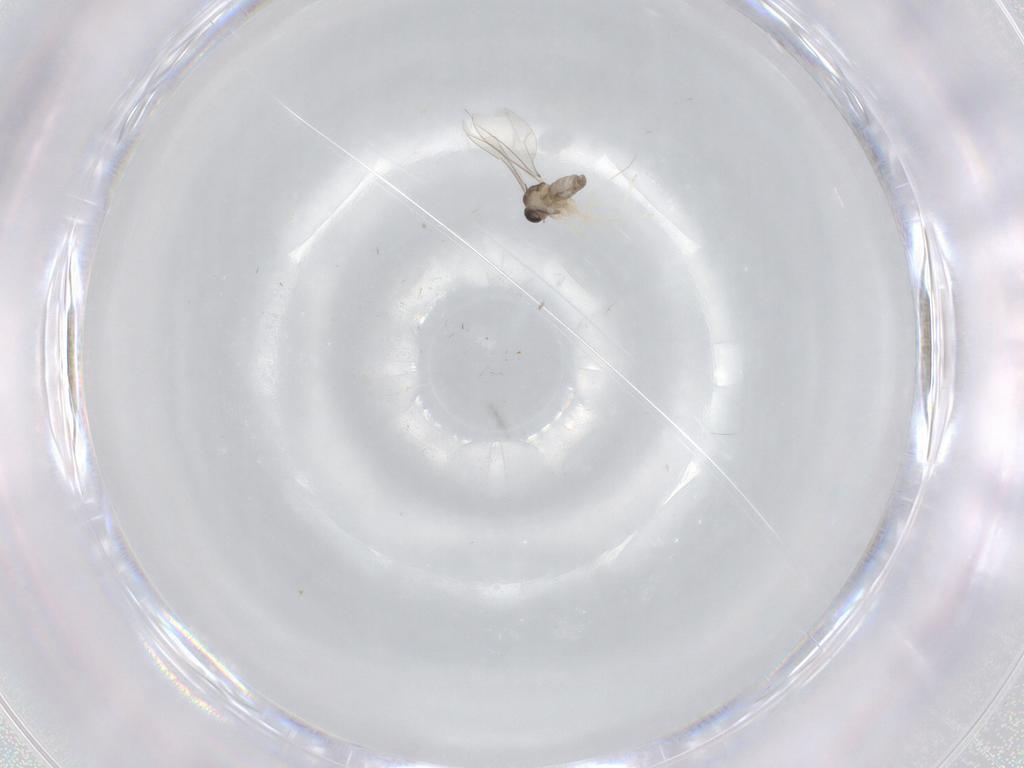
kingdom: Animalia
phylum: Arthropoda
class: Insecta
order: Diptera
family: Cecidomyiidae
